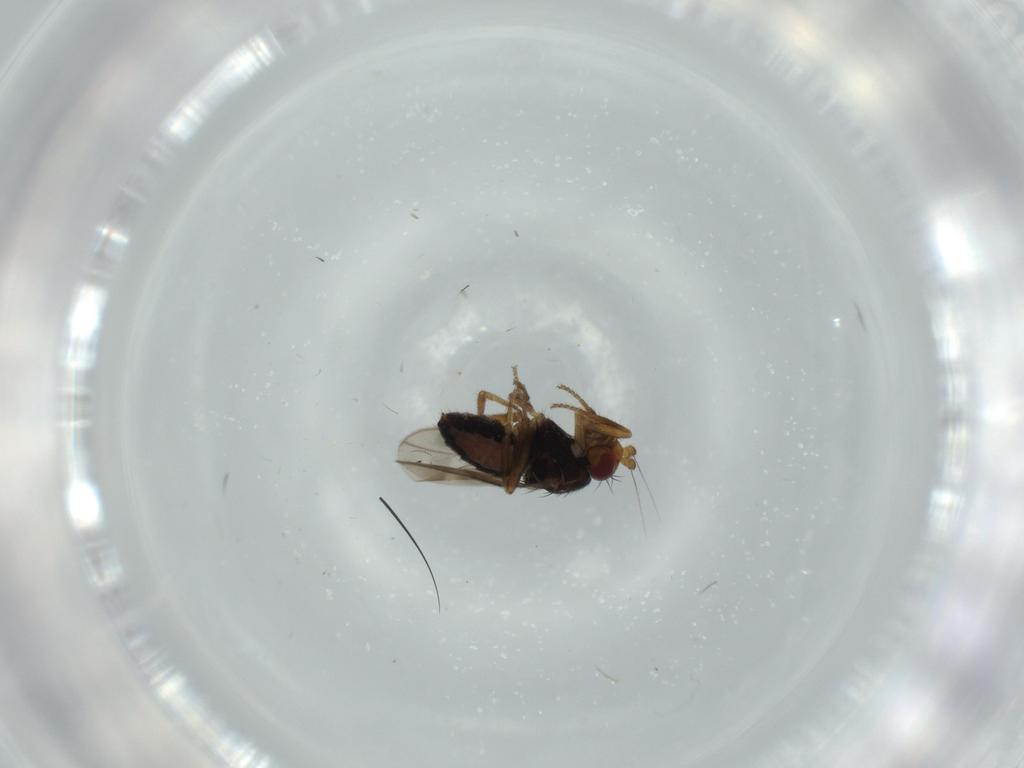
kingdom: Animalia
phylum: Arthropoda
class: Insecta
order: Diptera
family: Sphaeroceridae
